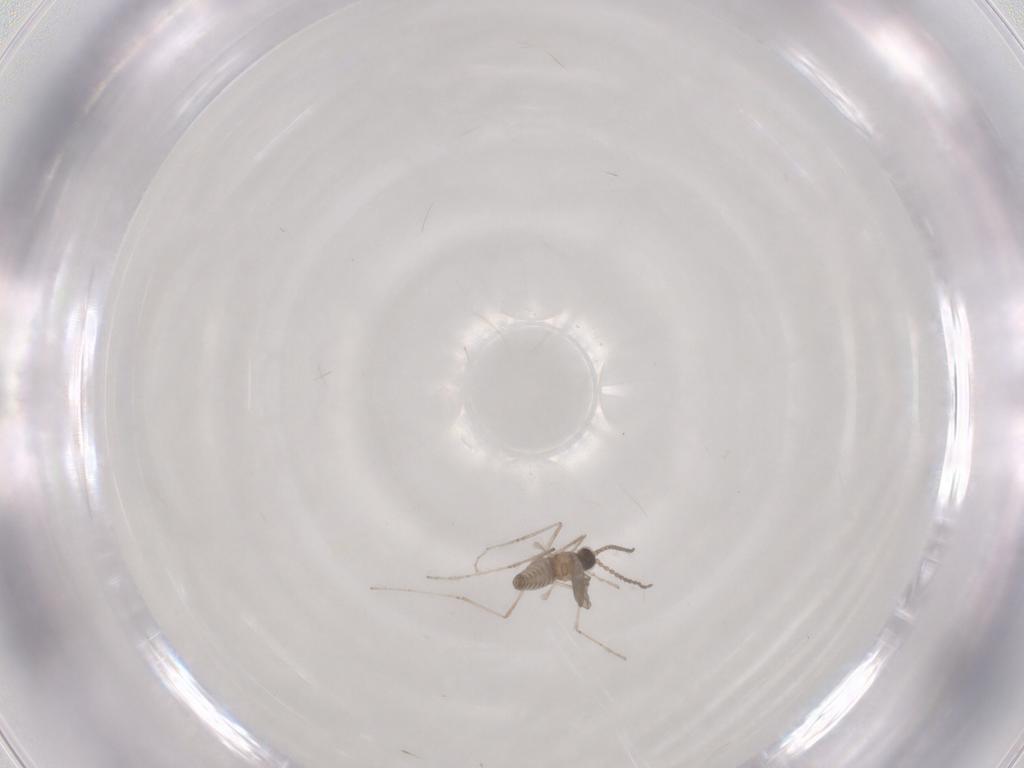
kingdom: Animalia
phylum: Arthropoda
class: Insecta
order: Diptera
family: Cecidomyiidae
